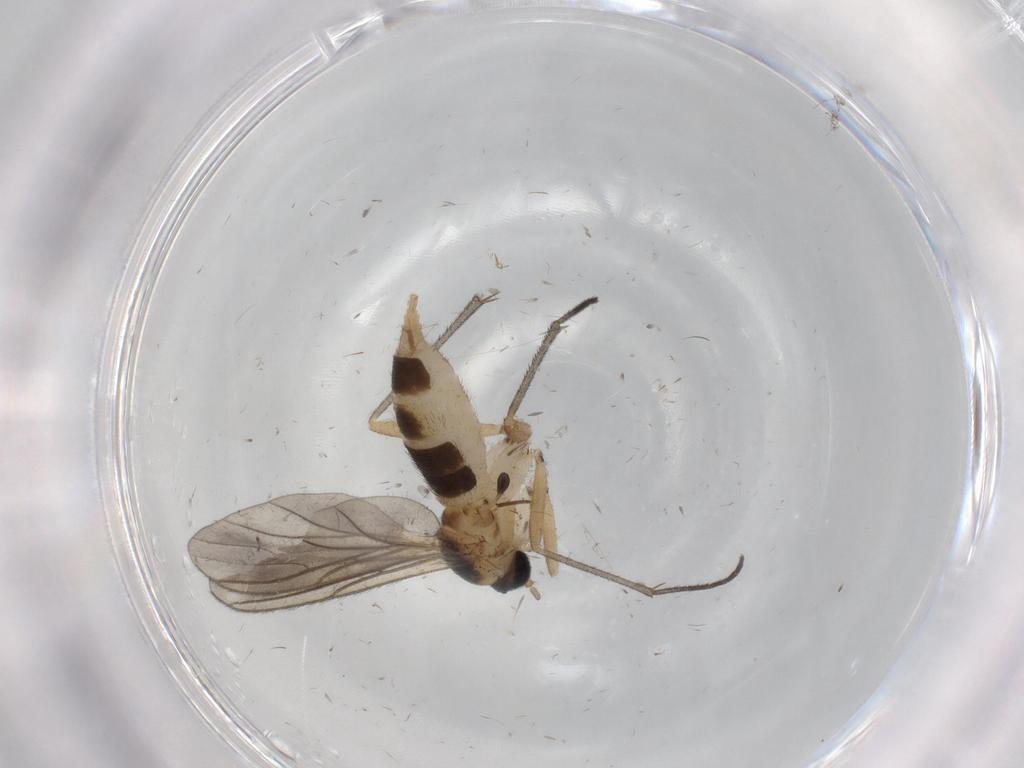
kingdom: Animalia
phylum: Arthropoda
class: Insecta
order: Diptera
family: Sciaridae
